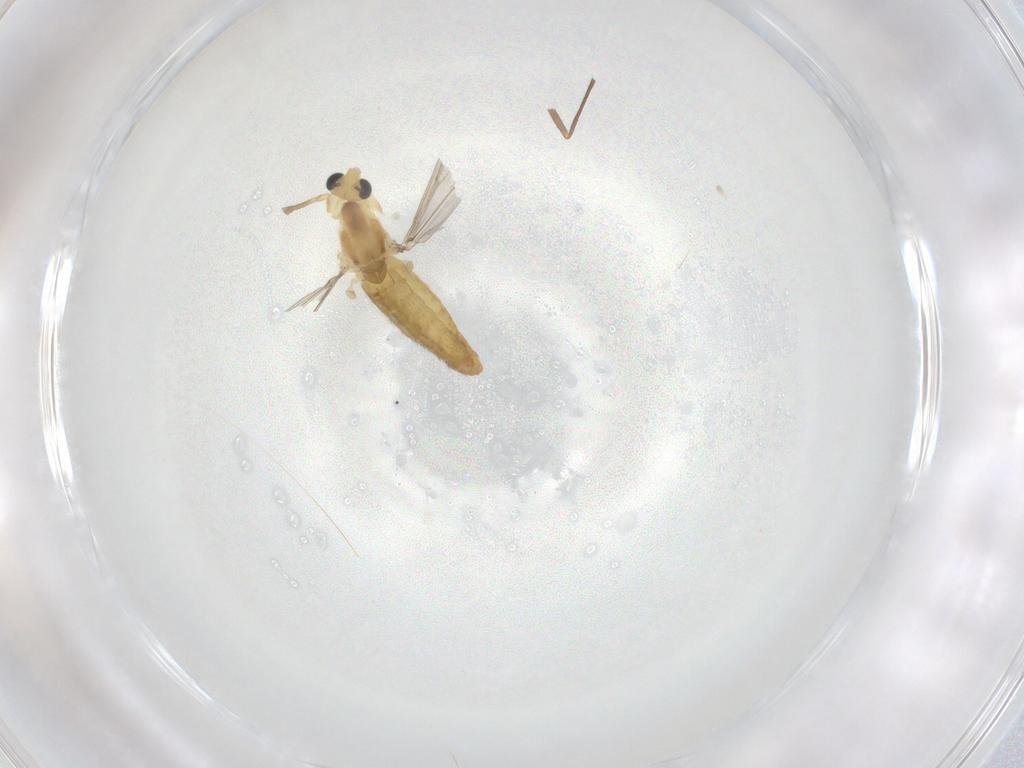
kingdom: Animalia
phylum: Arthropoda
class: Insecta
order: Diptera
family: Chironomidae
